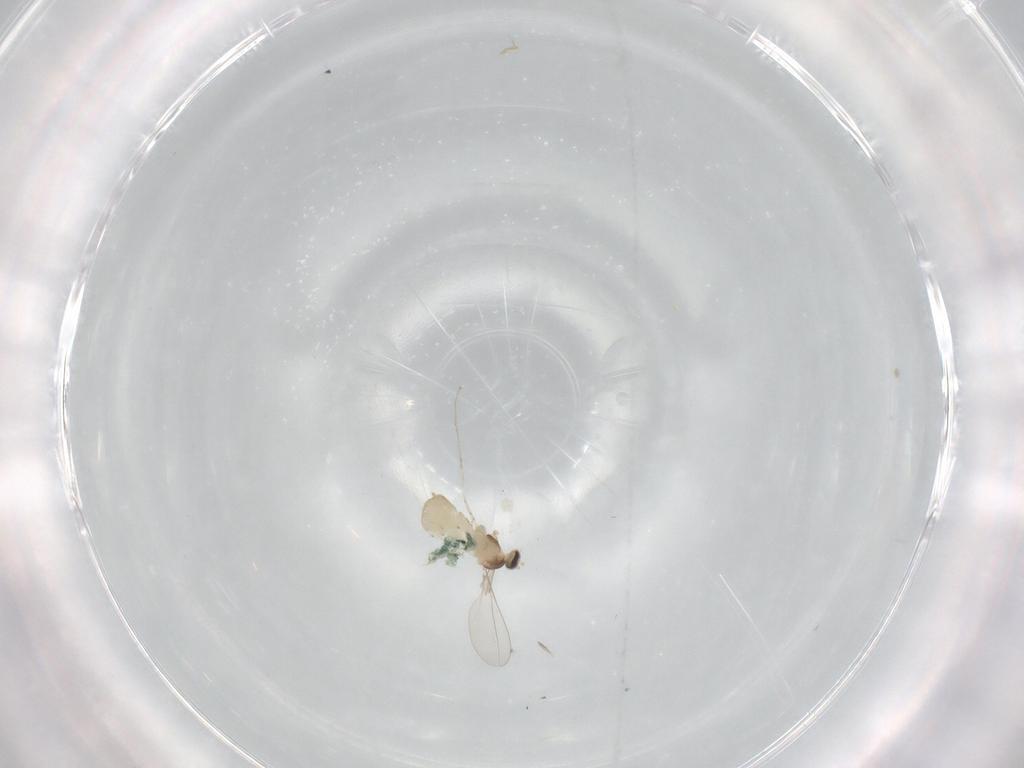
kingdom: Animalia
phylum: Arthropoda
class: Insecta
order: Diptera
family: Cecidomyiidae
